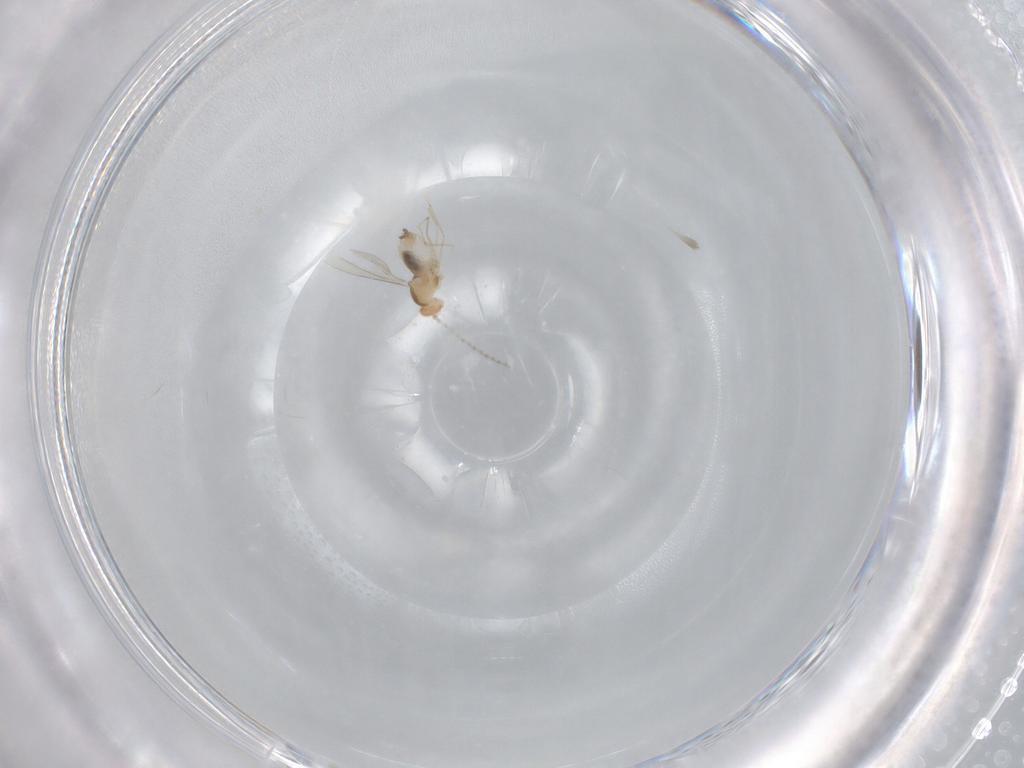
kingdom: Animalia
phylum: Arthropoda
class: Insecta
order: Diptera
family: Cecidomyiidae
